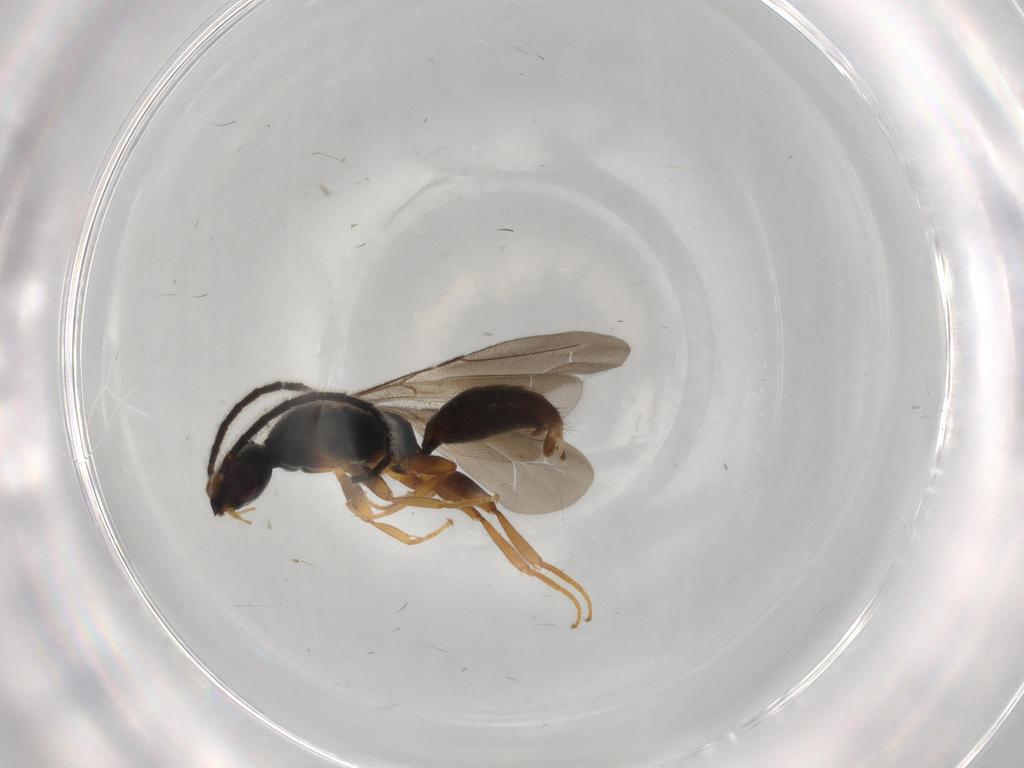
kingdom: Animalia
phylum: Arthropoda
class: Insecta
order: Hymenoptera
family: Bethylidae
